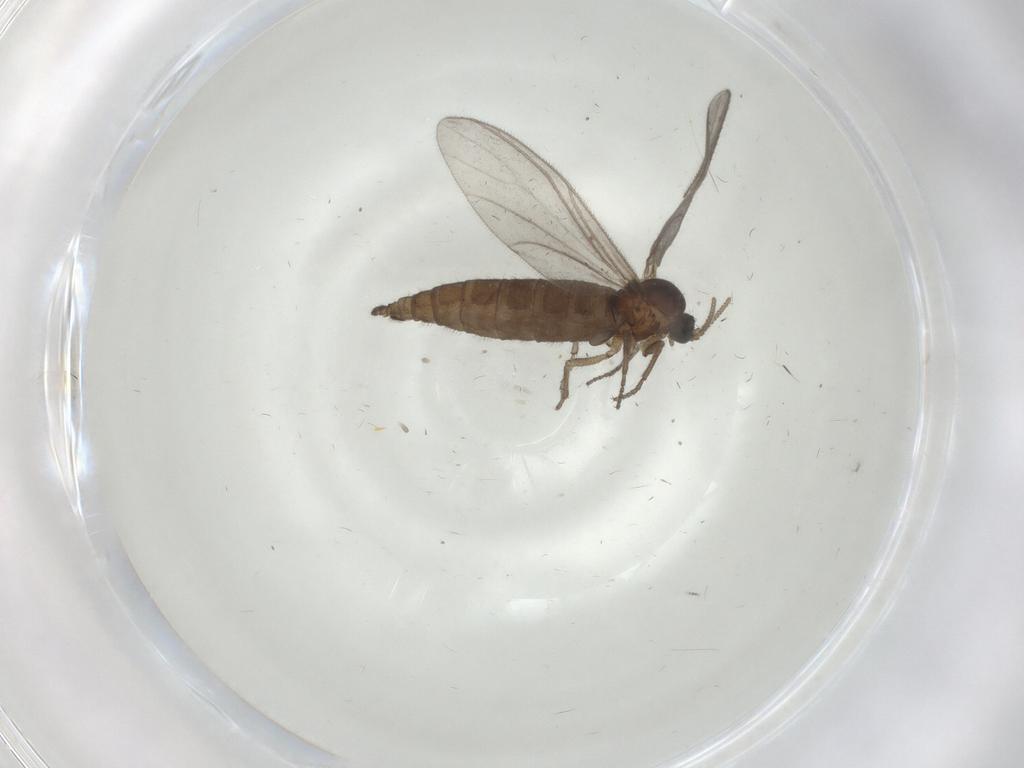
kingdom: Animalia
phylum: Arthropoda
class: Insecta
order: Diptera
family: Sciaridae
